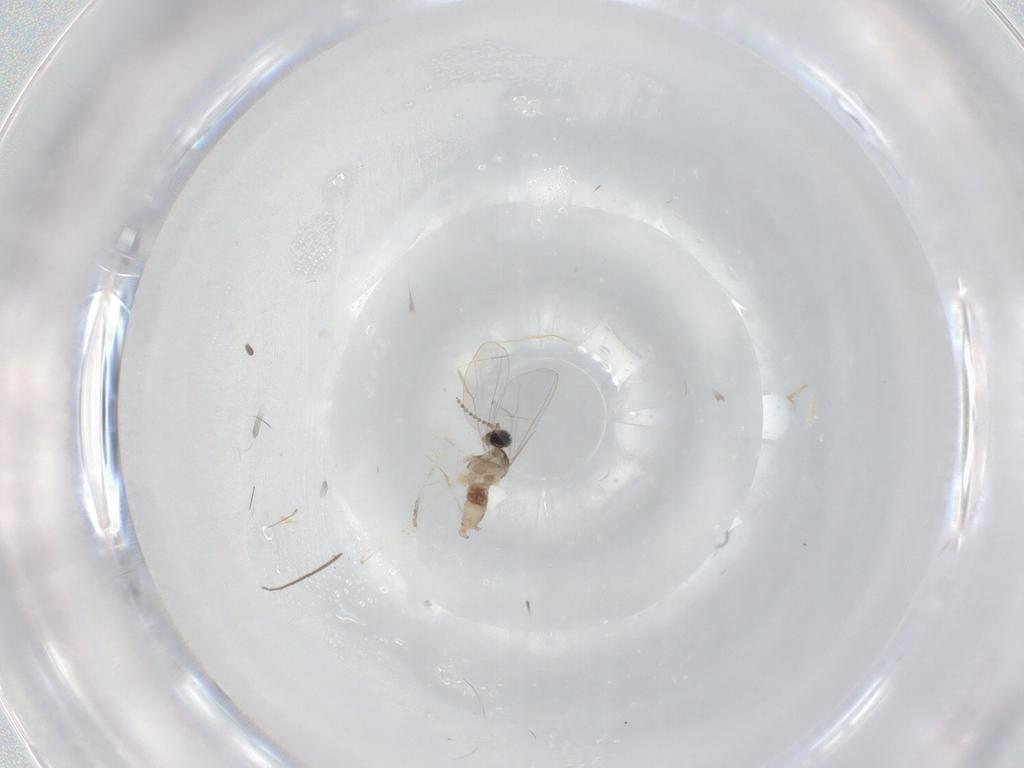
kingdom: Animalia
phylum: Arthropoda
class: Insecta
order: Diptera
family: Cecidomyiidae
